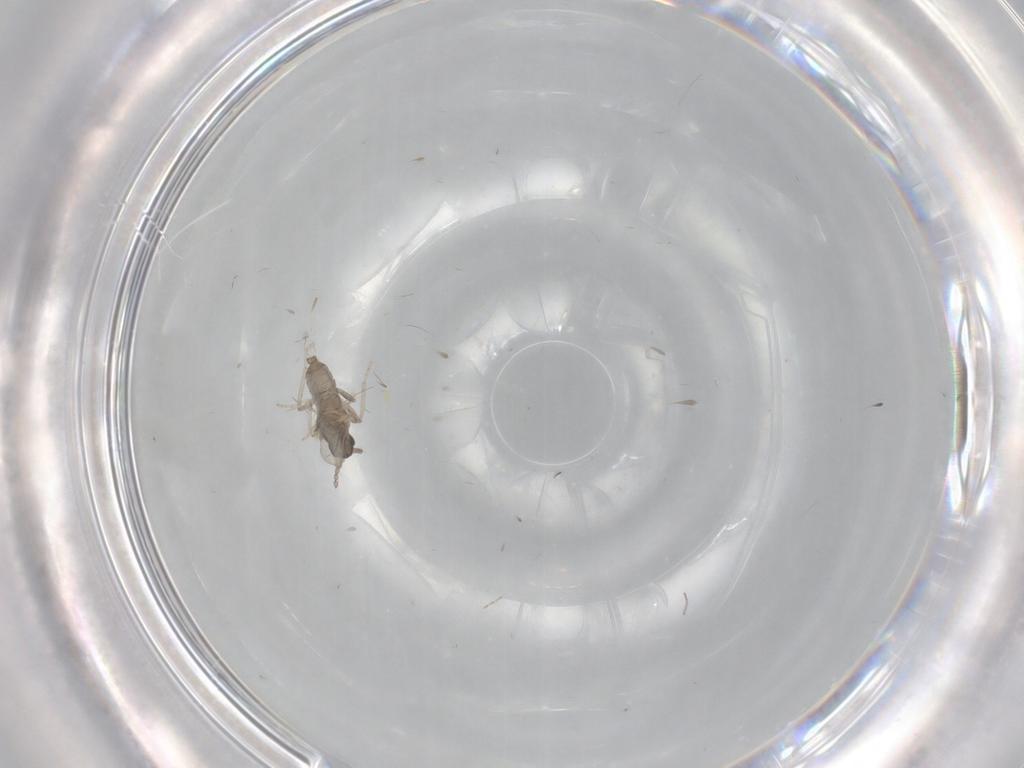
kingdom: Animalia
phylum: Arthropoda
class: Insecta
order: Diptera
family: Cecidomyiidae
